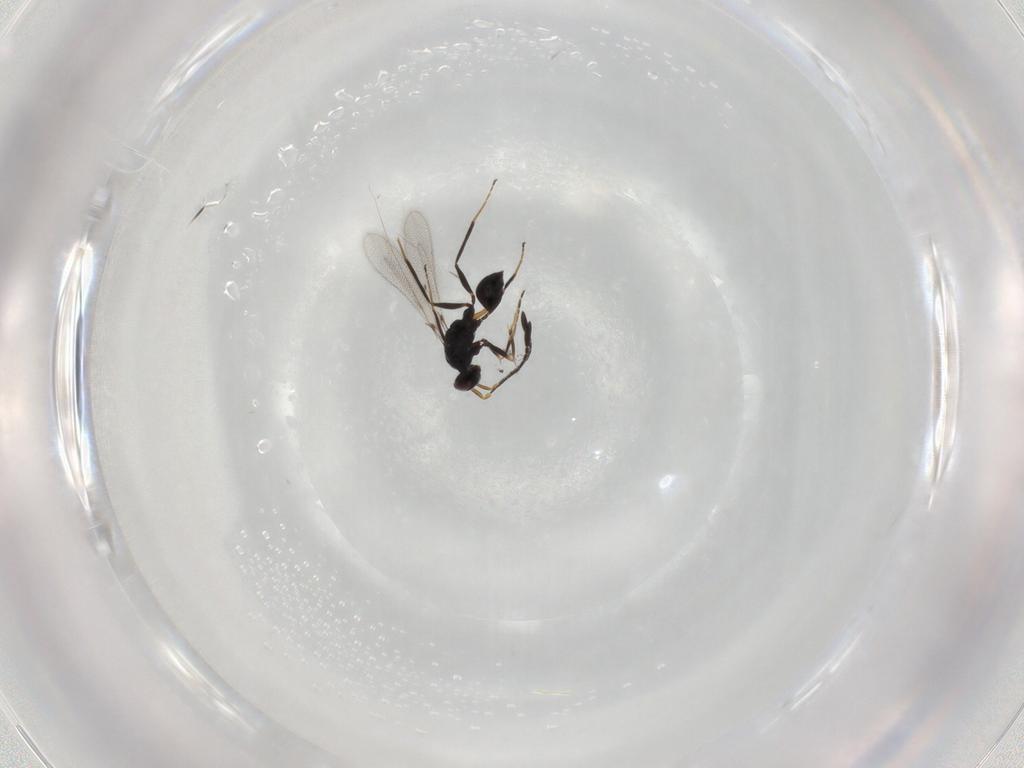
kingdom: Animalia
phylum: Arthropoda
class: Insecta
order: Hymenoptera
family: Mymaridae
